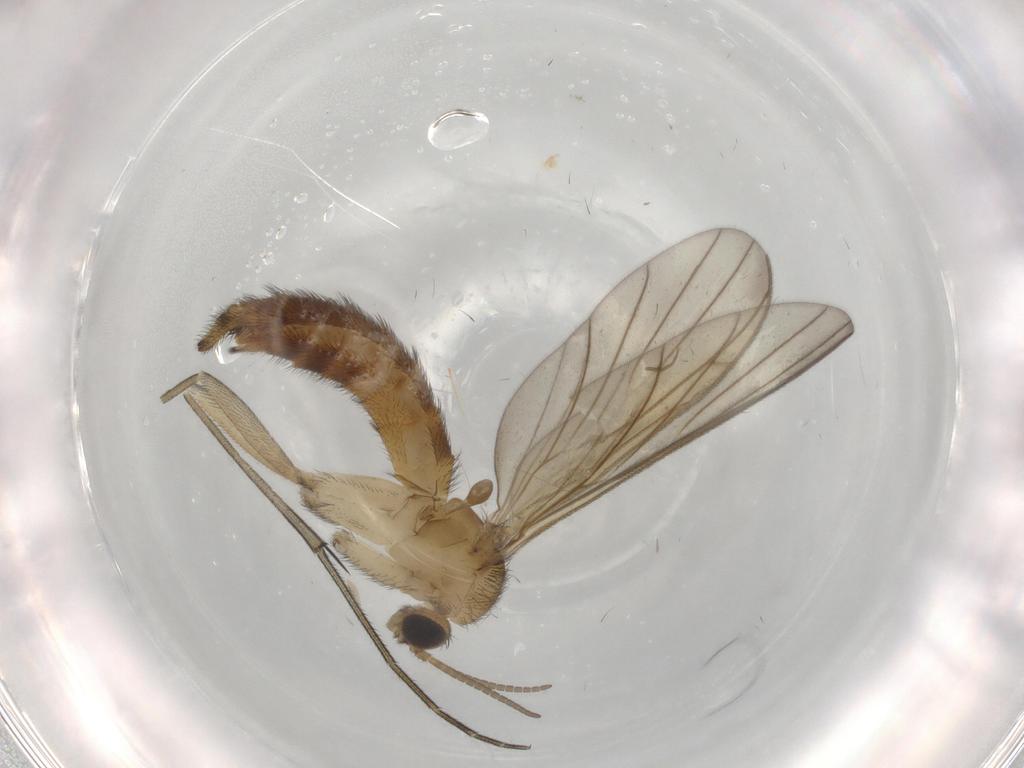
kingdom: Animalia
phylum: Arthropoda
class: Insecta
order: Diptera
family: Keroplatidae
